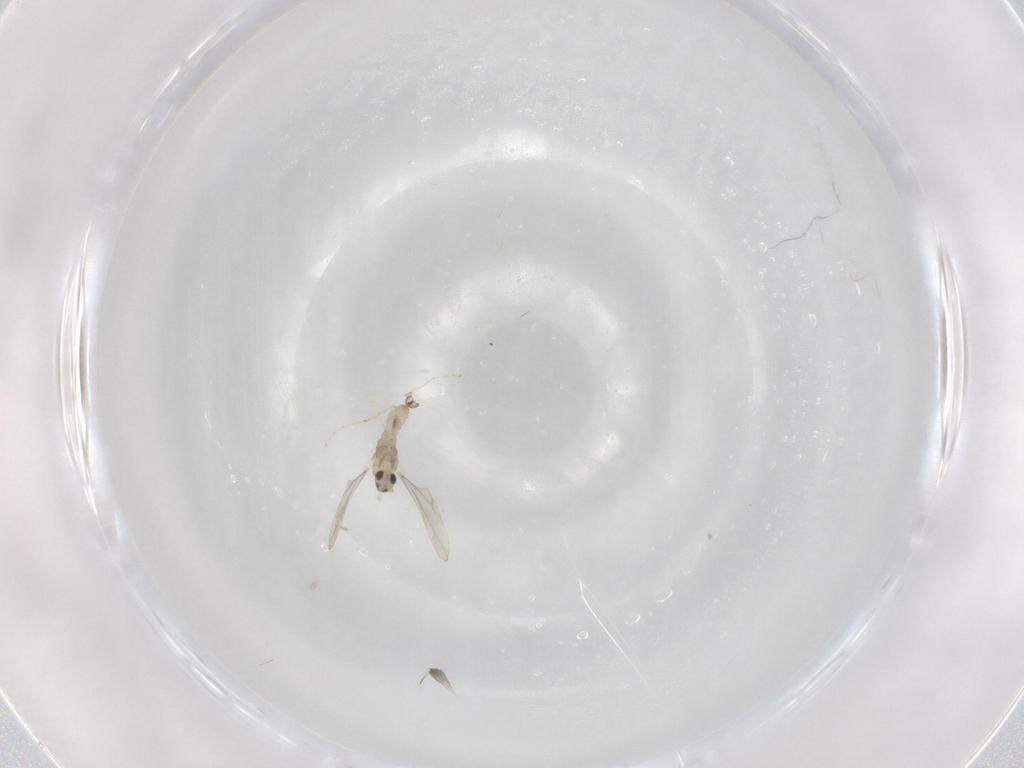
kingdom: Animalia
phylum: Arthropoda
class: Insecta
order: Diptera
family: Cecidomyiidae
